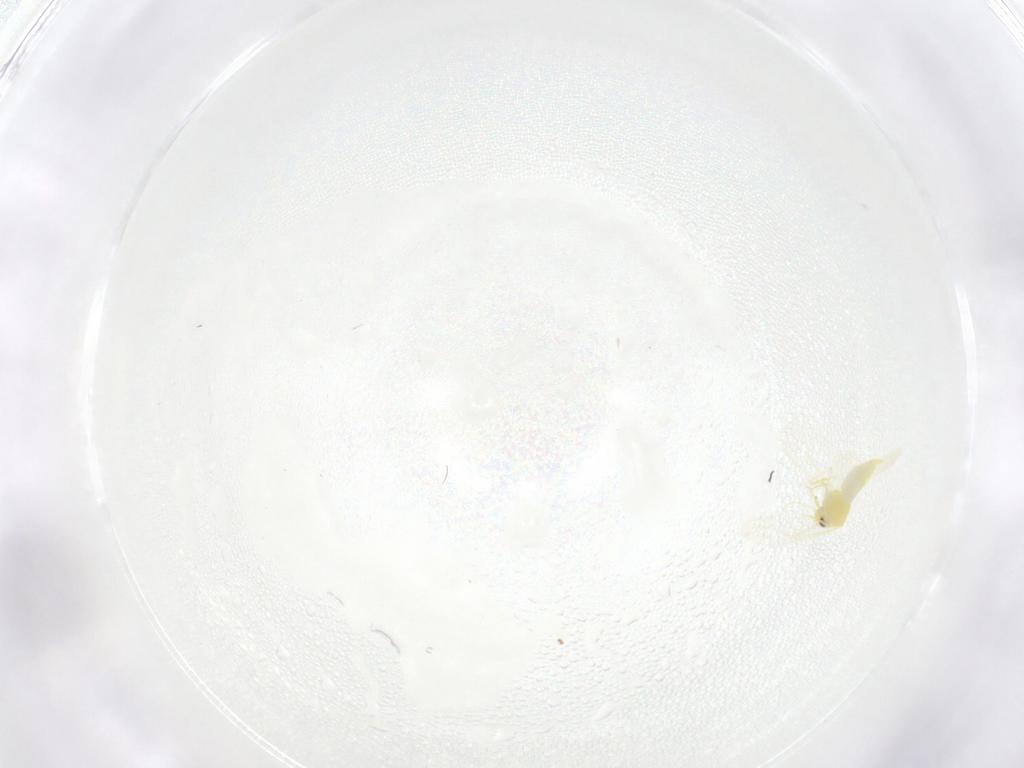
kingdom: Animalia
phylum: Arthropoda
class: Insecta
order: Hemiptera
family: Aleyrodidae
